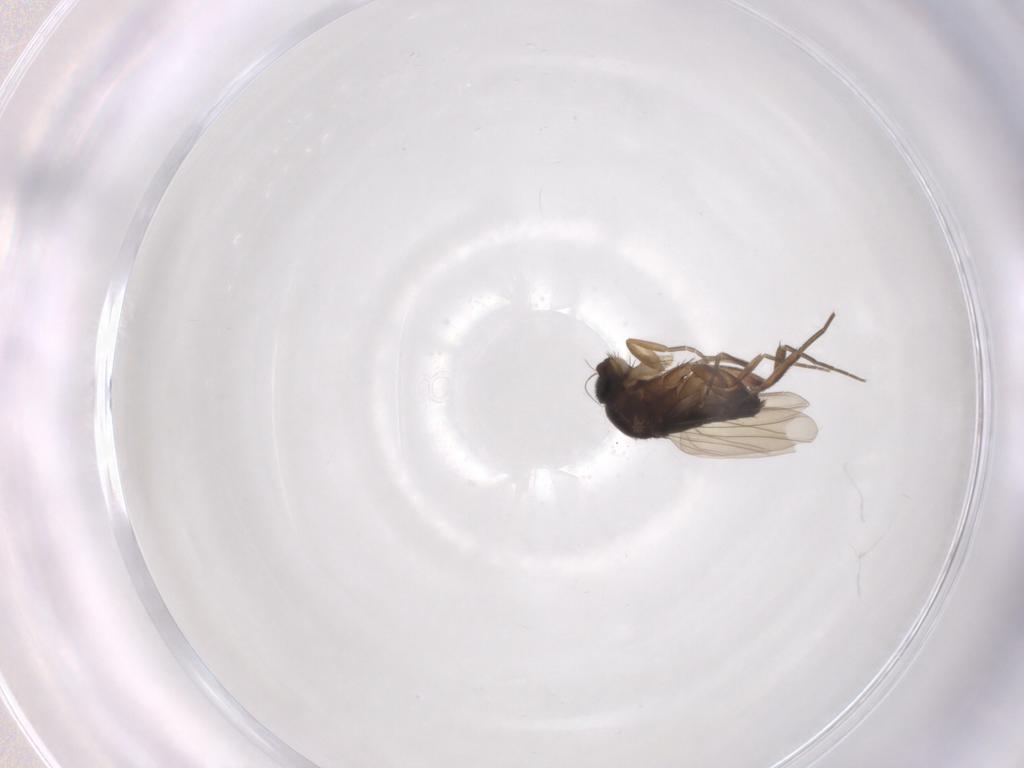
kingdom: Animalia
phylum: Arthropoda
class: Insecta
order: Diptera
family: Phoridae
